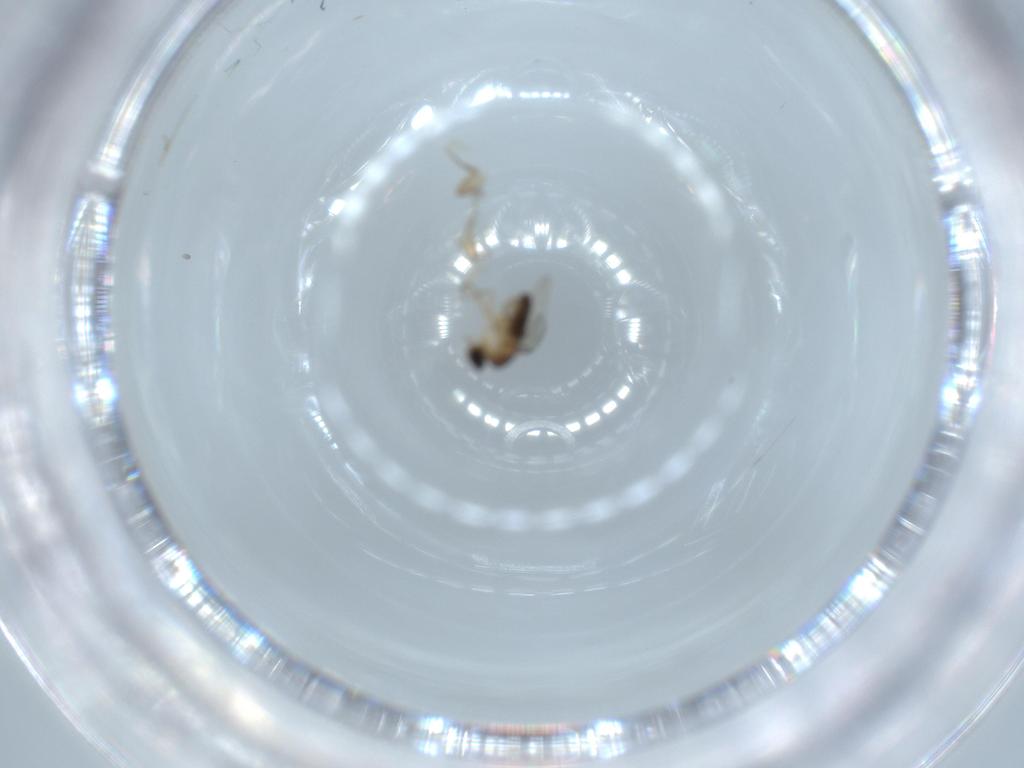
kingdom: Animalia
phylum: Arthropoda
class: Insecta
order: Diptera
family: Phoridae
